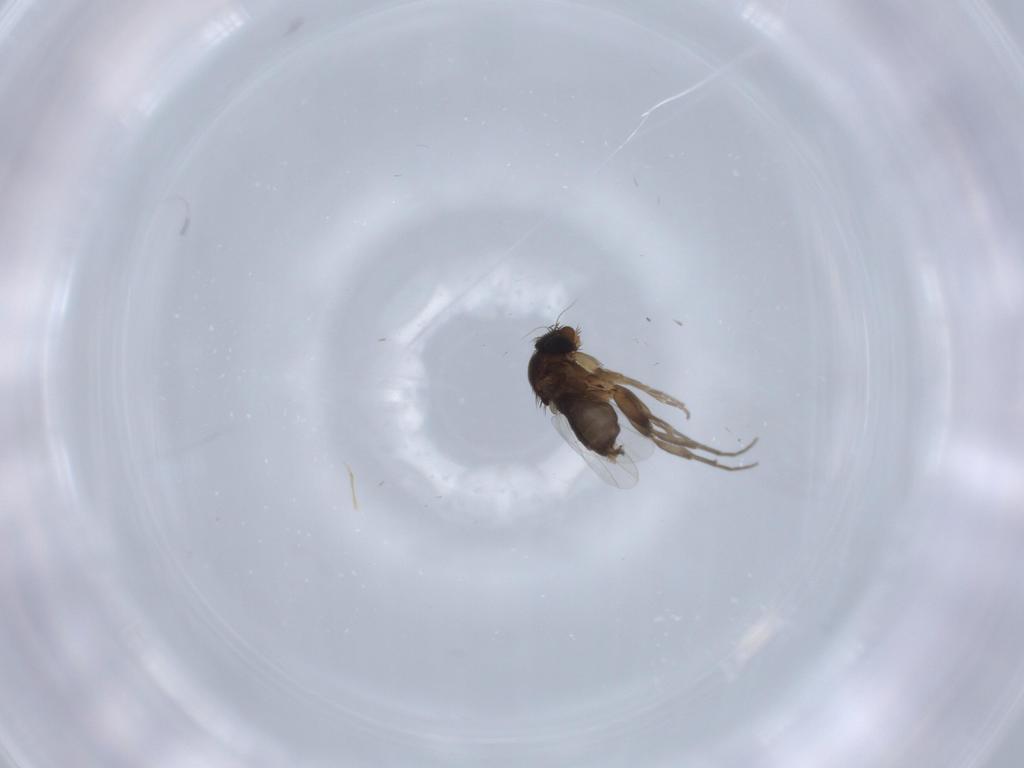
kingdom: Animalia
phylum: Arthropoda
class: Insecta
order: Diptera
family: Phoridae
